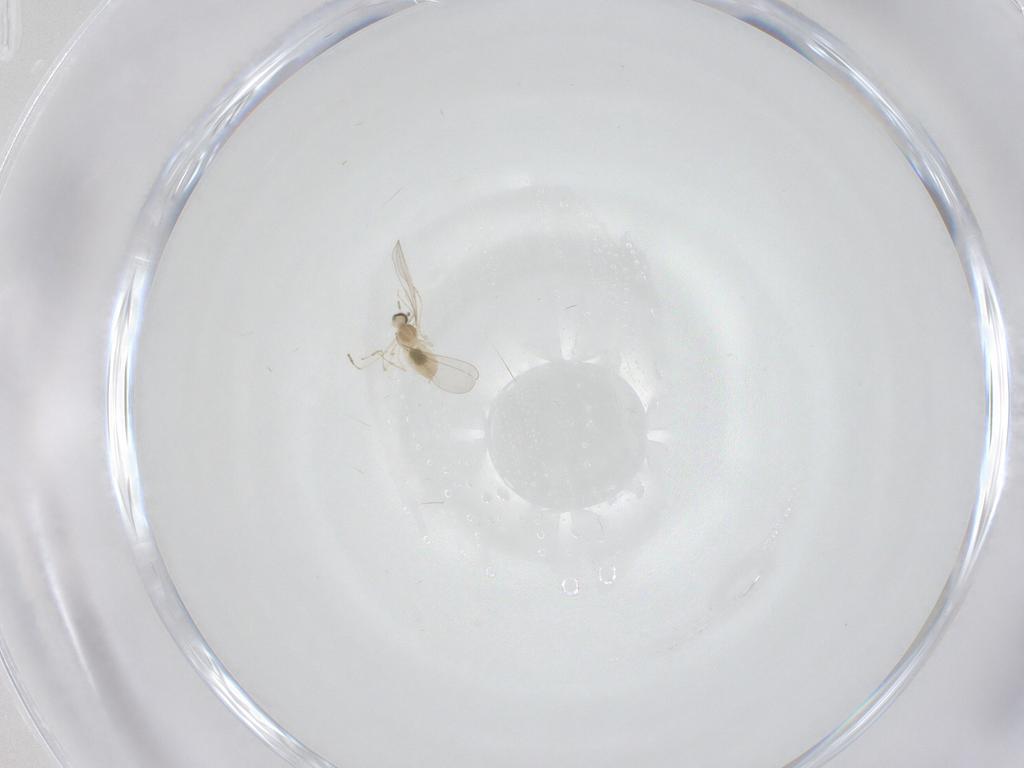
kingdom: Animalia
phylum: Arthropoda
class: Insecta
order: Diptera
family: Cecidomyiidae
